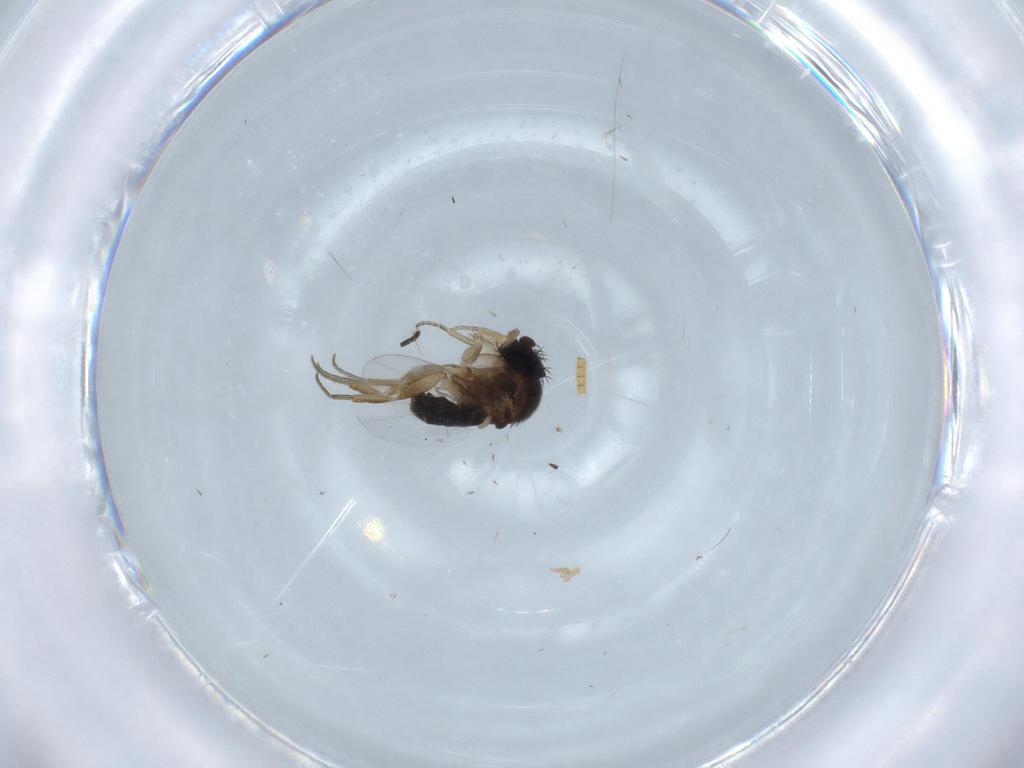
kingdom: Animalia
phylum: Arthropoda
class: Insecta
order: Diptera
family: Phoridae
